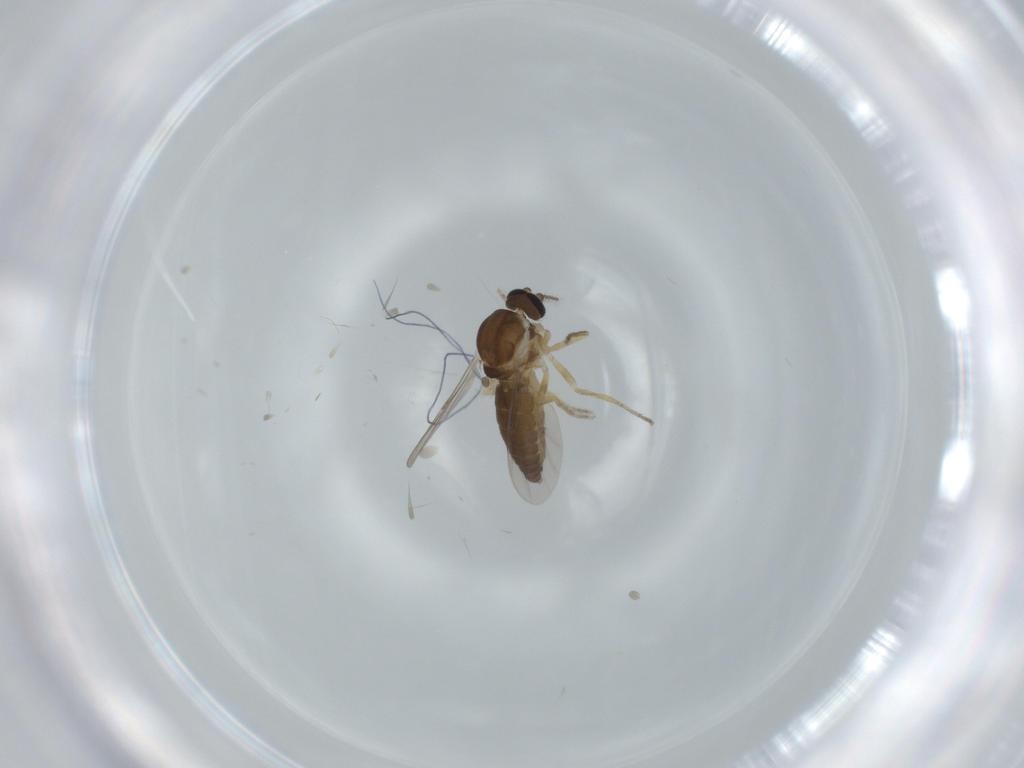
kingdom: Animalia
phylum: Arthropoda
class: Insecta
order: Diptera
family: Ceratopogonidae
